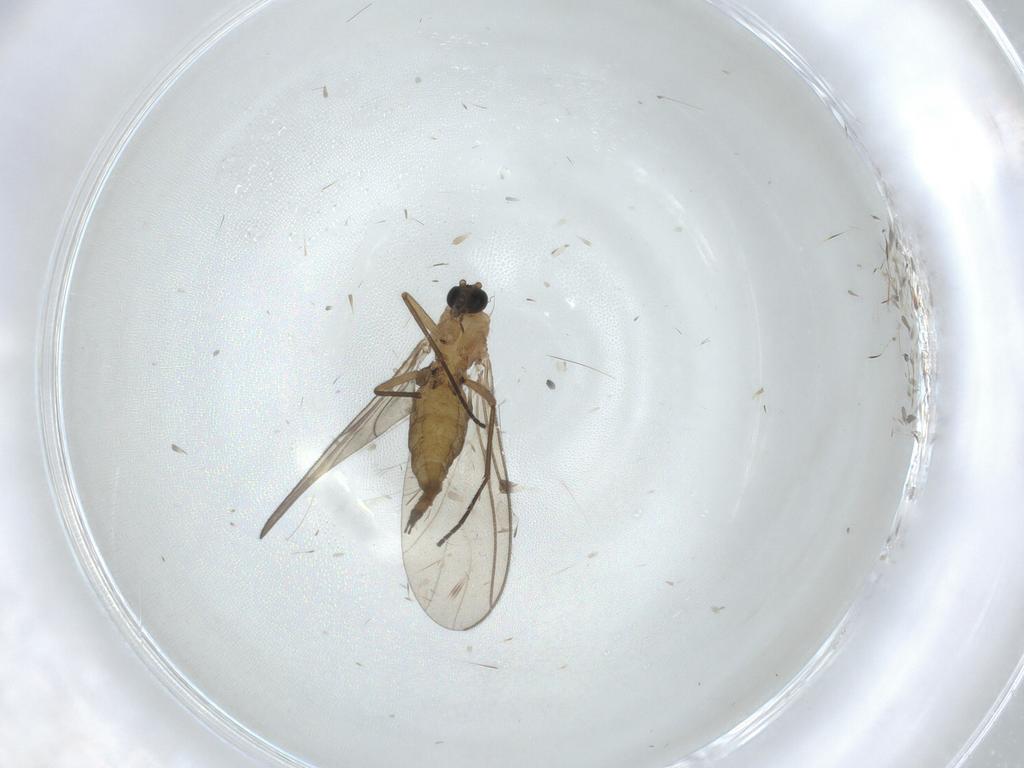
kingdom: Animalia
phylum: Arthropoda
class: Insecta
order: Diptera
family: Sciaridae
